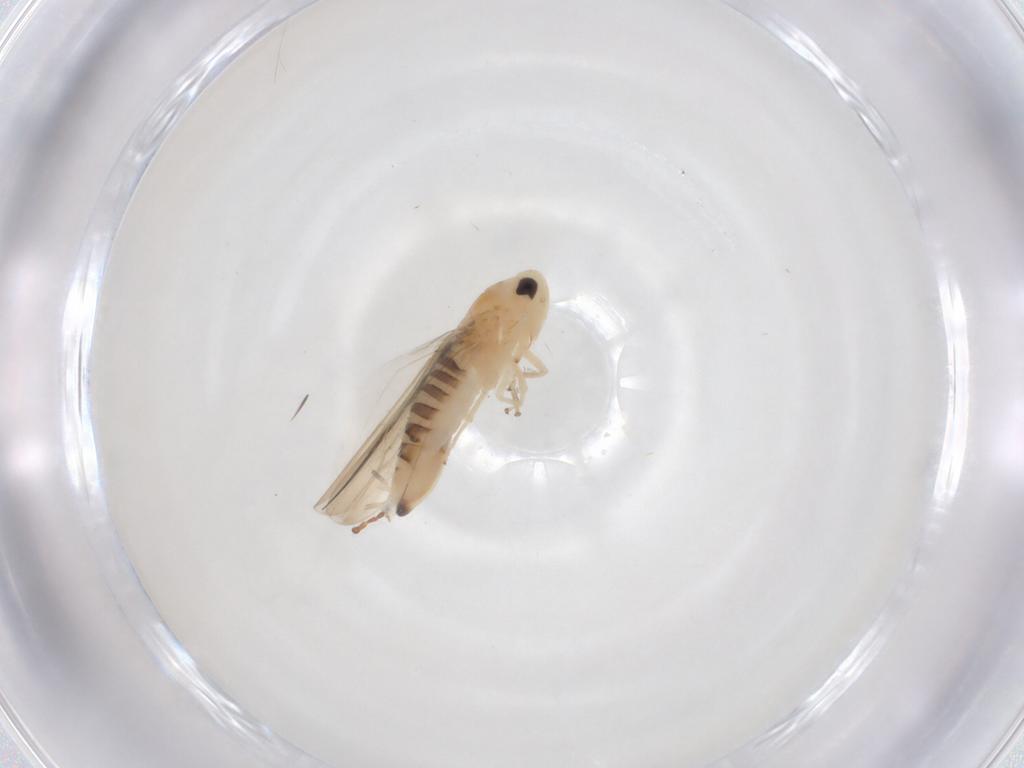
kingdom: Animalia
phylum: Arthropoda
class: Insecta
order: Hemiptera
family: Cicadellidae
